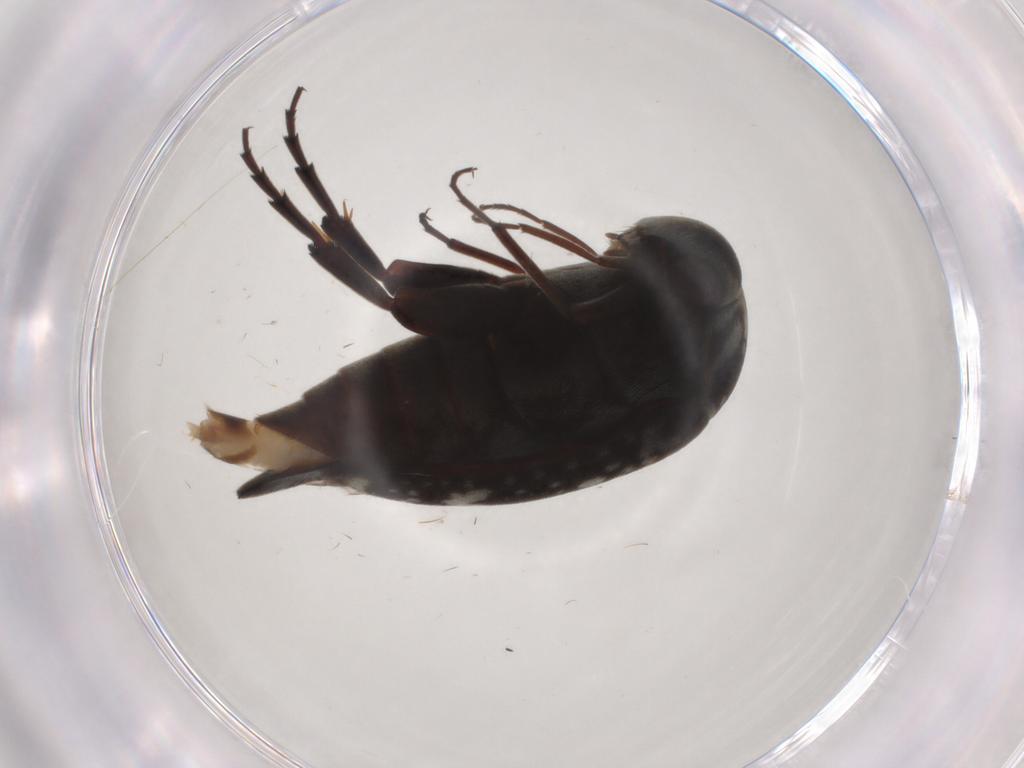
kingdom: Animalia
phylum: Arthropoda
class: Insecta
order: Coleoptera
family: Mordellidae
